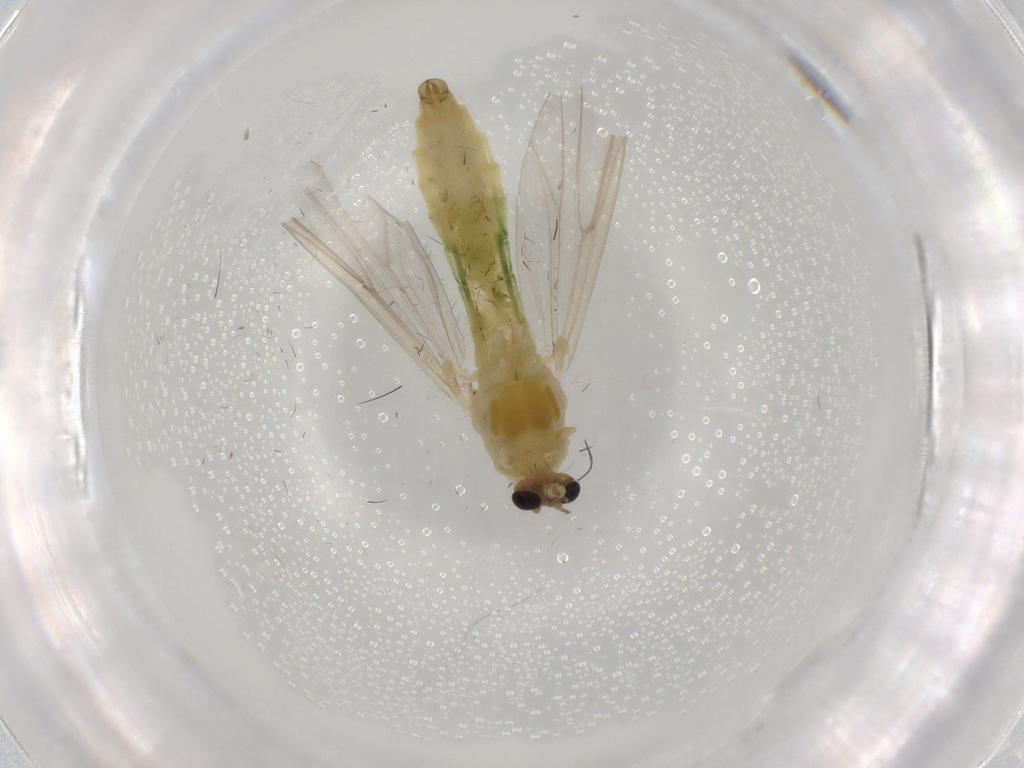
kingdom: Animalia
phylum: Arthropoda
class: Insecta
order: Diptera
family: Chironomidae
